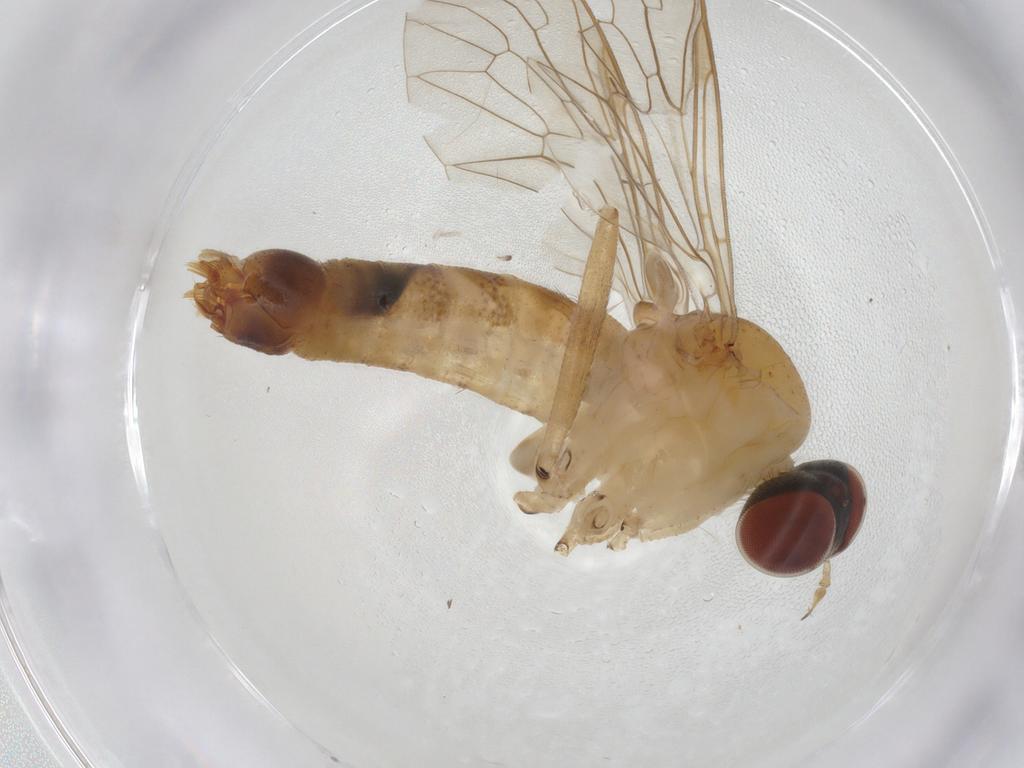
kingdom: Animalia
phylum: Arthropoda
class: Insecta
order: Diptera
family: Apsilocephalidae
